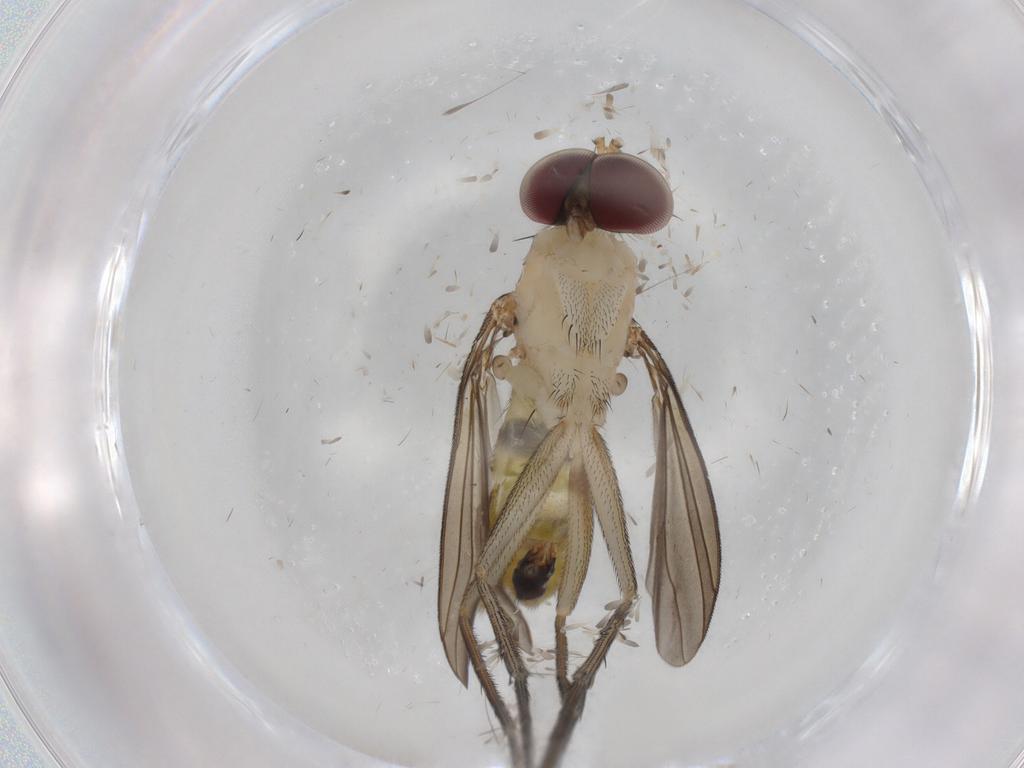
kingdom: Animalia
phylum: Arthropoda
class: Insecta
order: Diptera
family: Dolichopodidae
